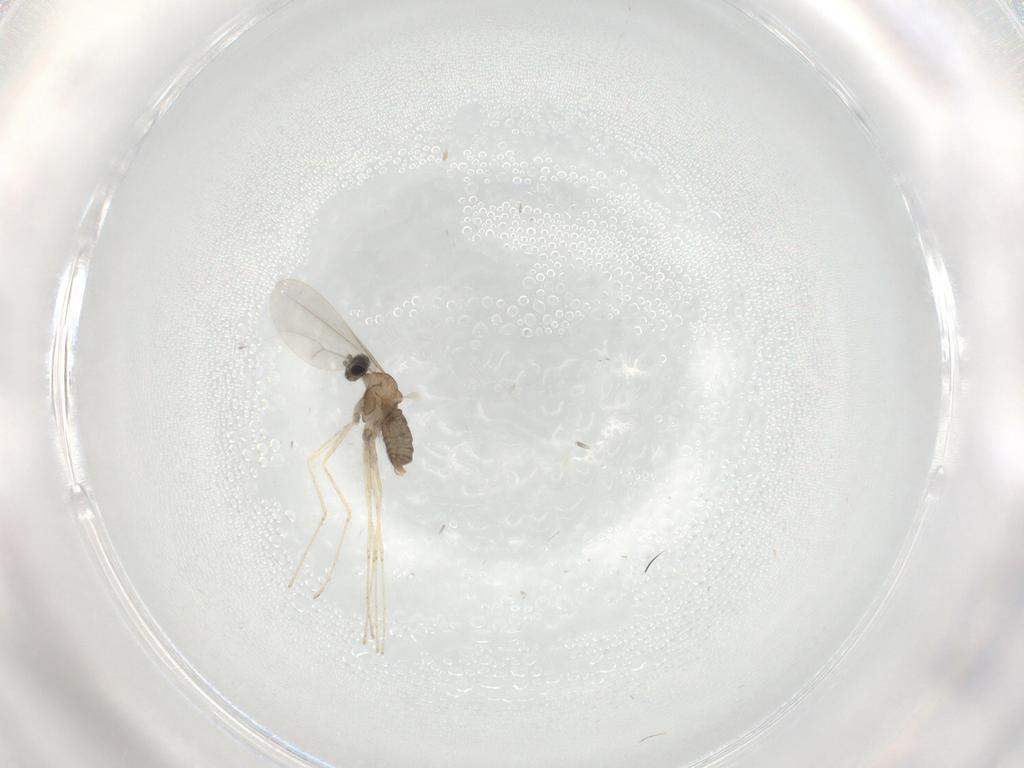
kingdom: Animalia
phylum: Arthropoda
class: Insecta
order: Diptera
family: Cecidomyiidae
